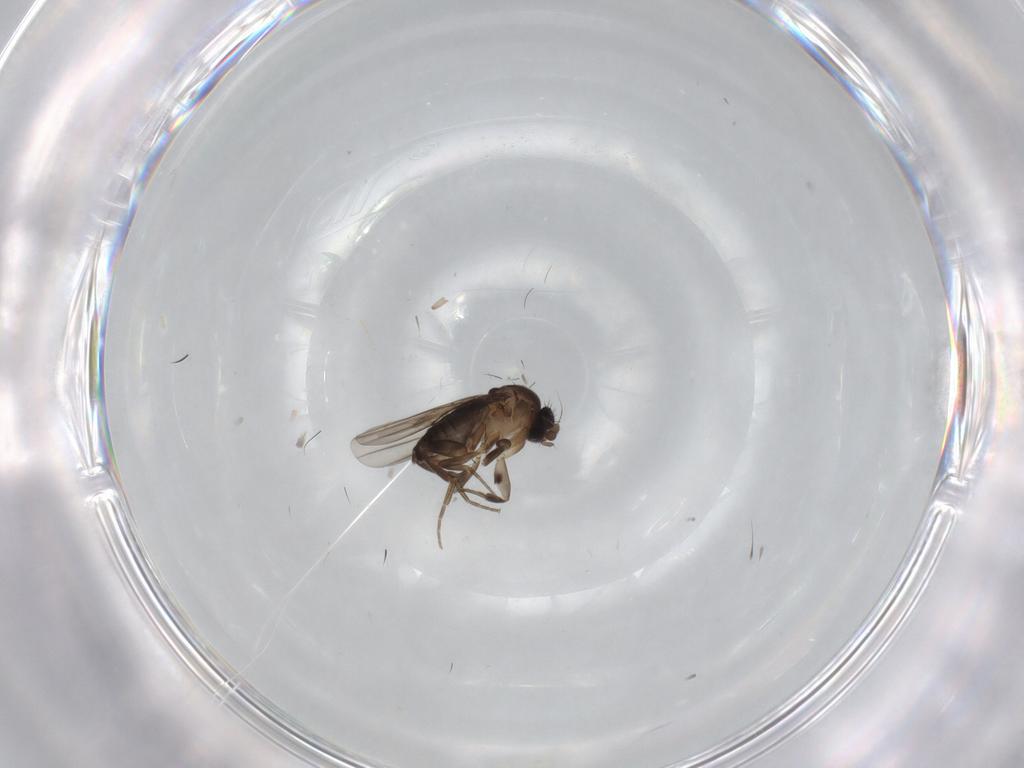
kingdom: Animalia
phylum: Arthropoda
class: Insecta
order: Diptera
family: Phoridae
